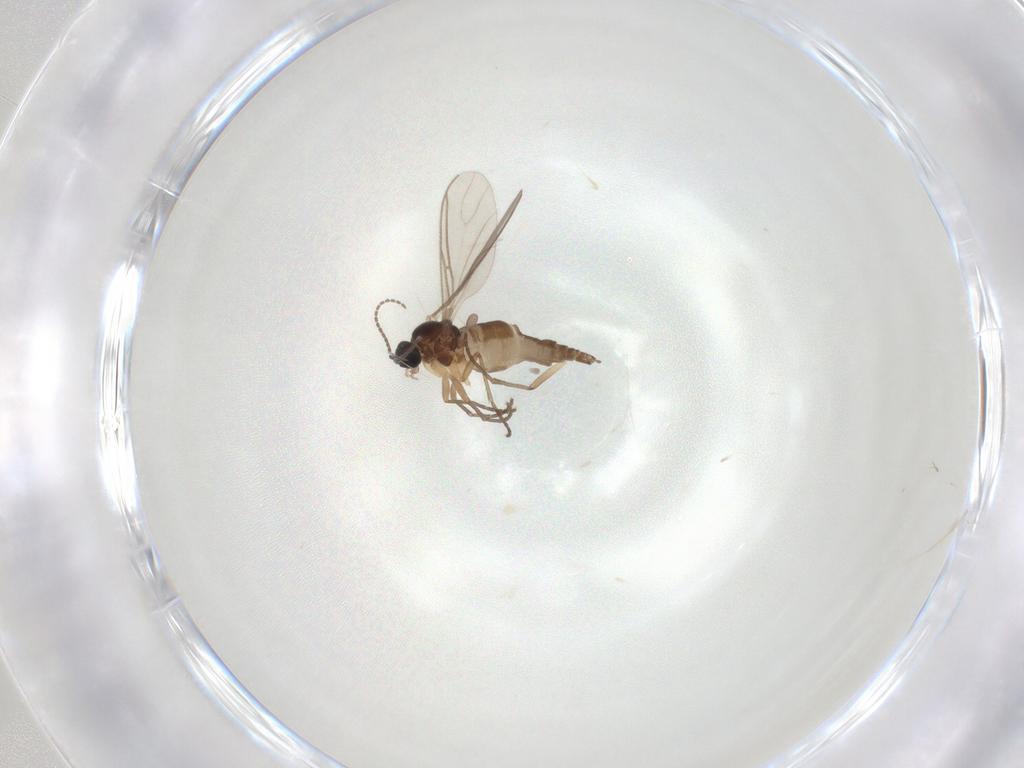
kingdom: Animalia
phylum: Arthropoda
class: Insecta
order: Diptera
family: Sciaridae
